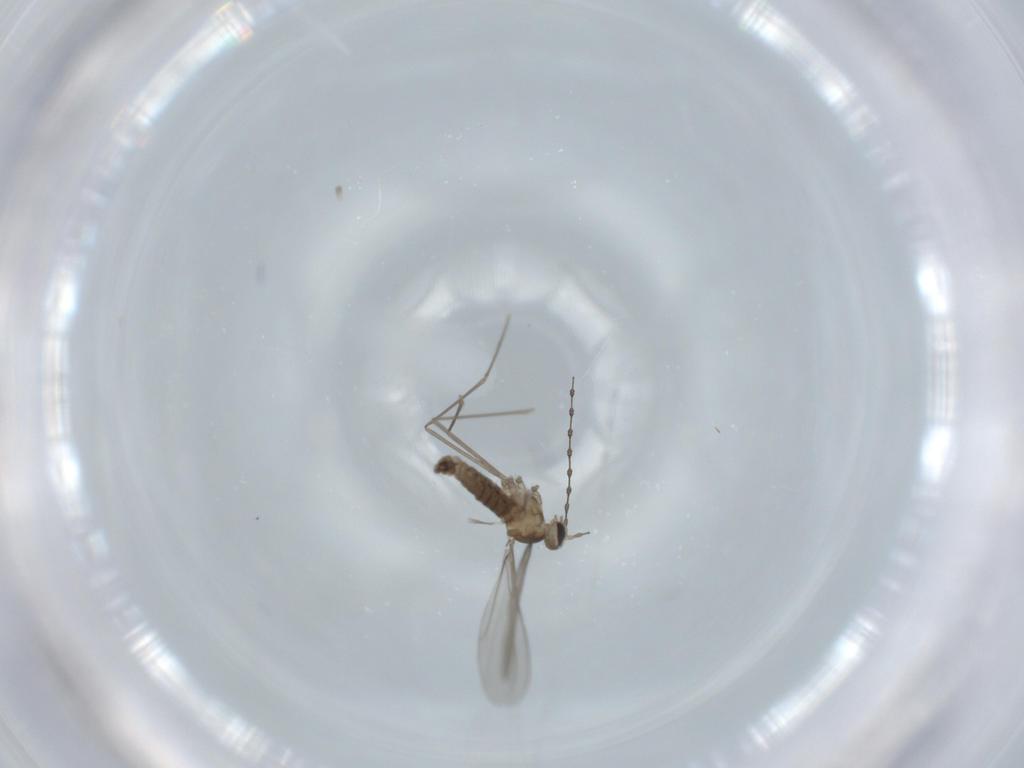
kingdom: Animalia
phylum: Arthropoda
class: Insecta
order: Diptera
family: Cecidomyiidae
